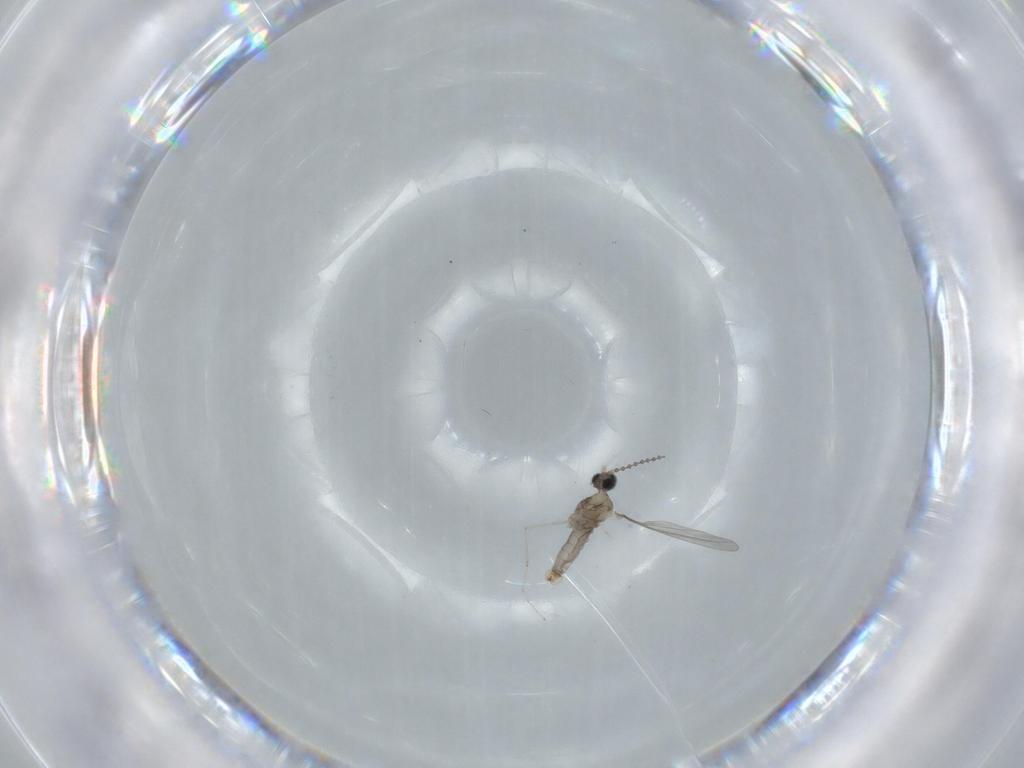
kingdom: Animalia
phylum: Arthropoda
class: Insecta
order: Diptera
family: Cecidomyiidae
